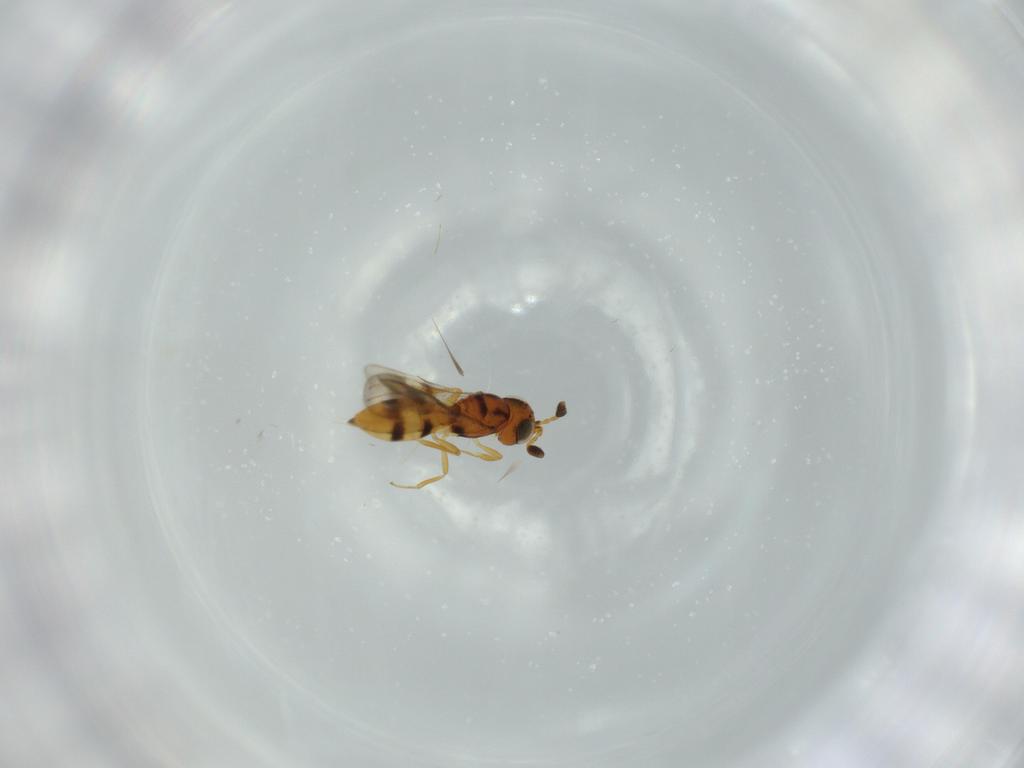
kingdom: Animalia
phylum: Arthropoda
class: Insecta
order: Hymenoptera
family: Scelionidae
